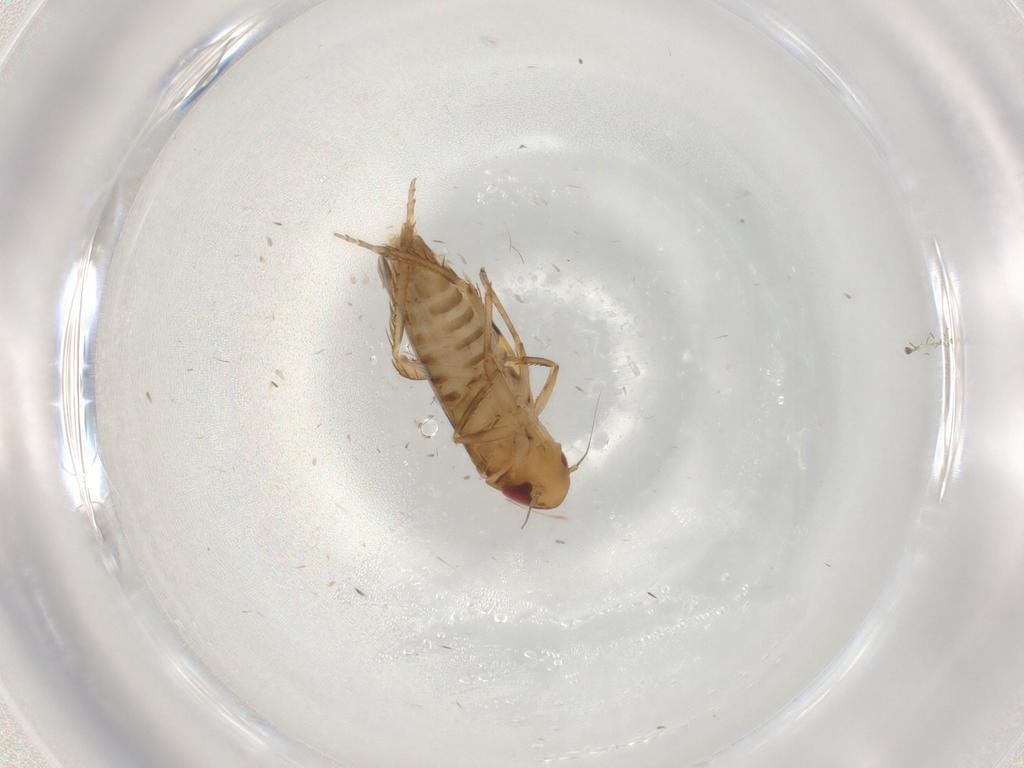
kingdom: Animalia
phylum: Arthropoda
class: Insecta
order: Hemiptera
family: Cicadellidae
